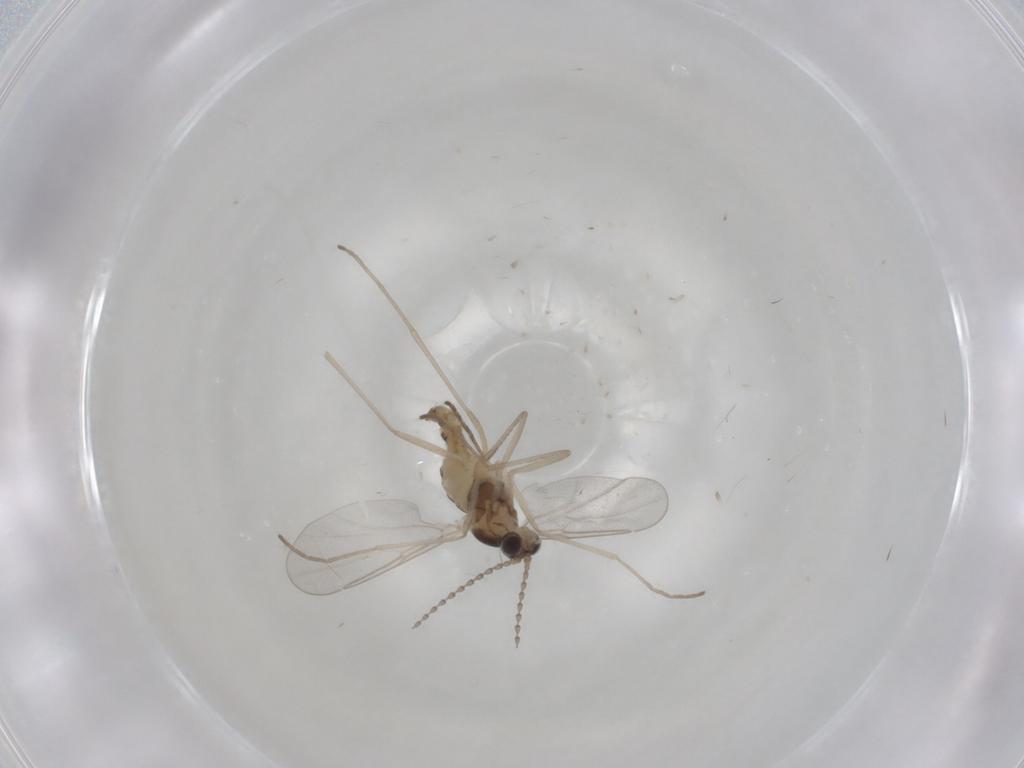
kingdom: Animalia
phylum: Arthropoda
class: Insecta
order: Diptera
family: Cecidomyiidae
